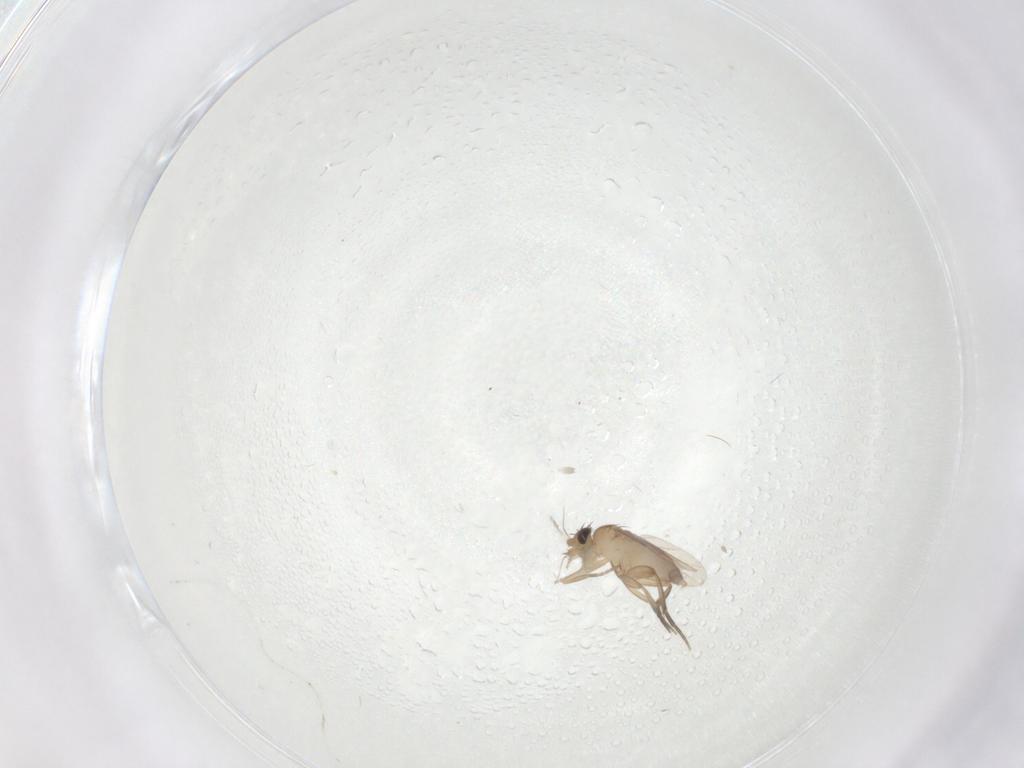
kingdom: Animalia
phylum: Arthropoda
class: Insecta
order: Diptera
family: Phoridae
